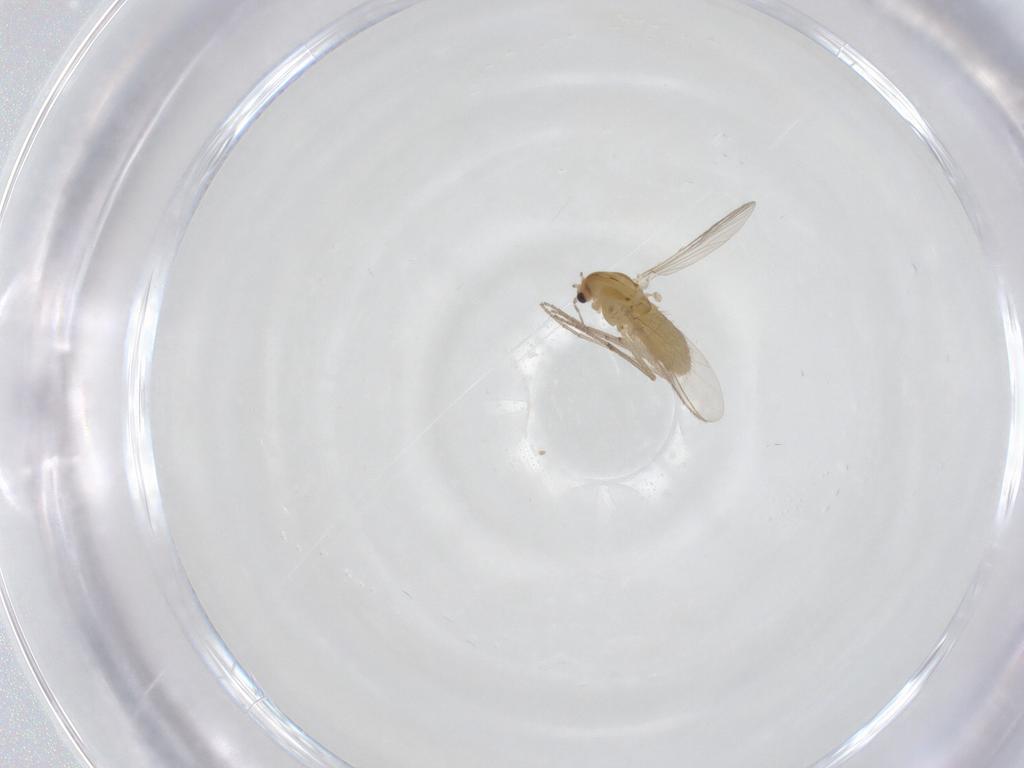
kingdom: Animalia
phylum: Arthropoda
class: Insecta
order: Diptera
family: Chironomidae
